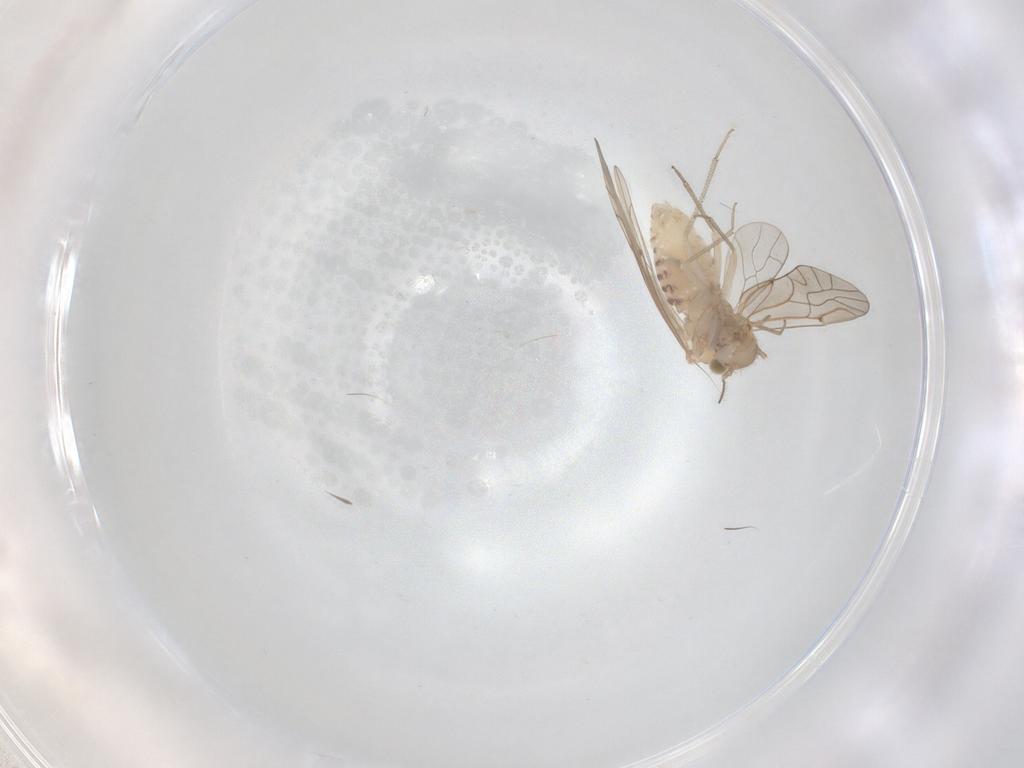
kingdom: Animalia
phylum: Arthropoda
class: Insecta
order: Psocodea
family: Lachesillidae
